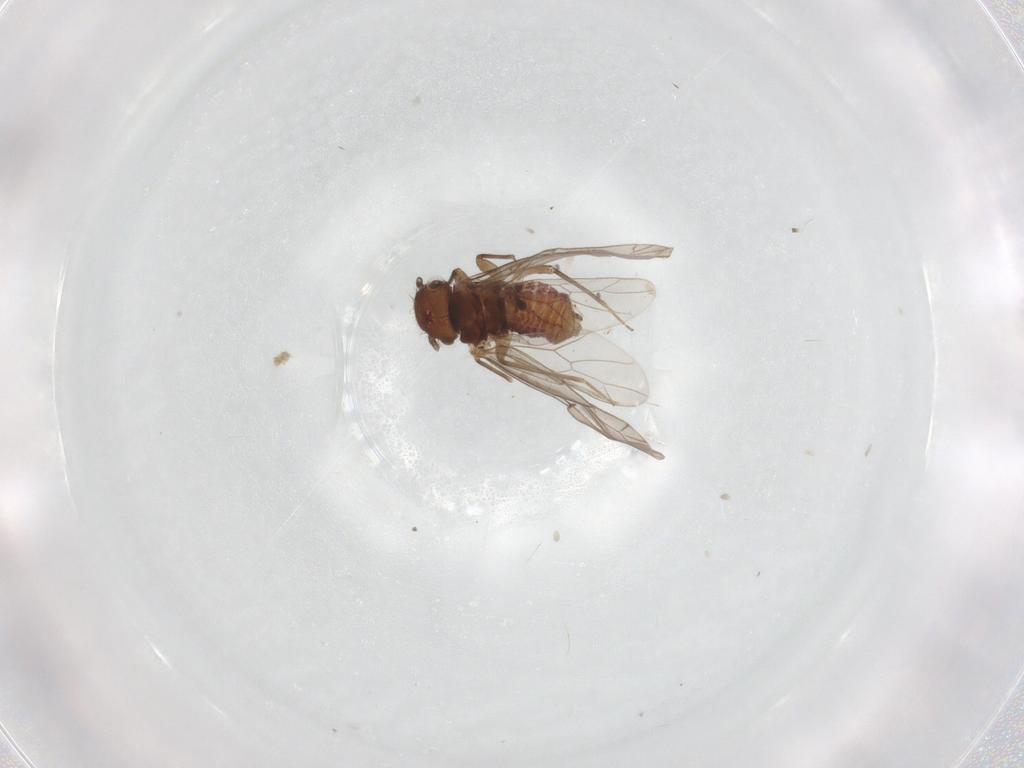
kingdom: Animalia
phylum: Arthropoda
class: Insecta
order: Psocodea
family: Ectopsocidae
